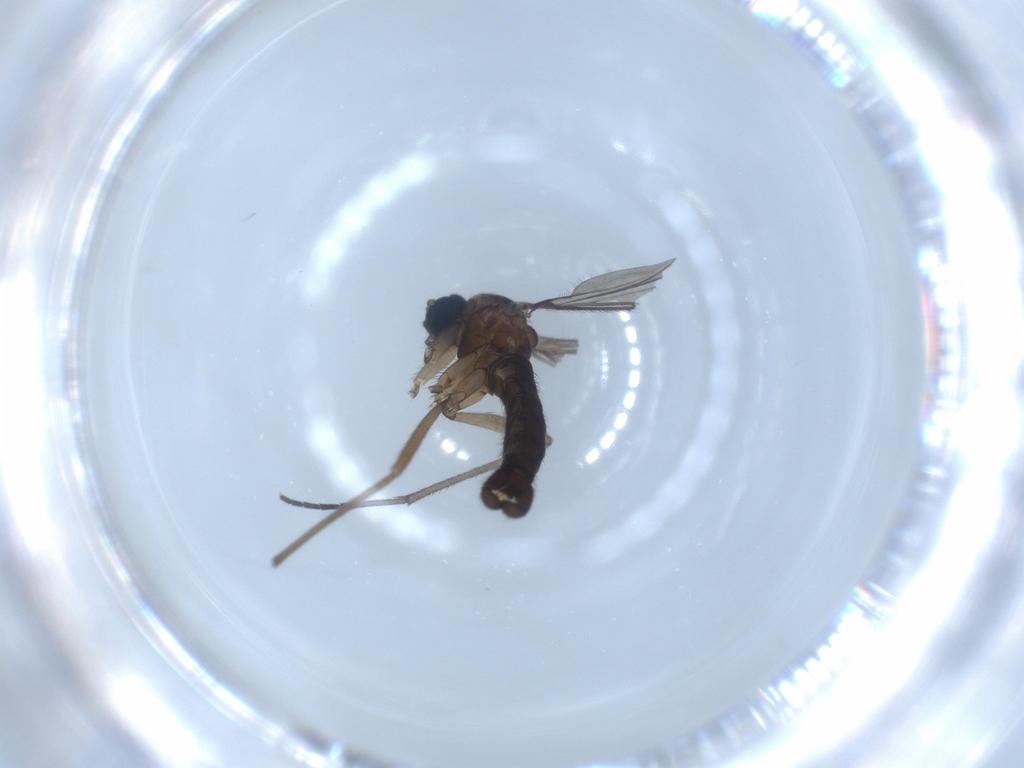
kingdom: Animalia
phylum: Arthropoda
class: Insecta
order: Diptera
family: Sciaridae
